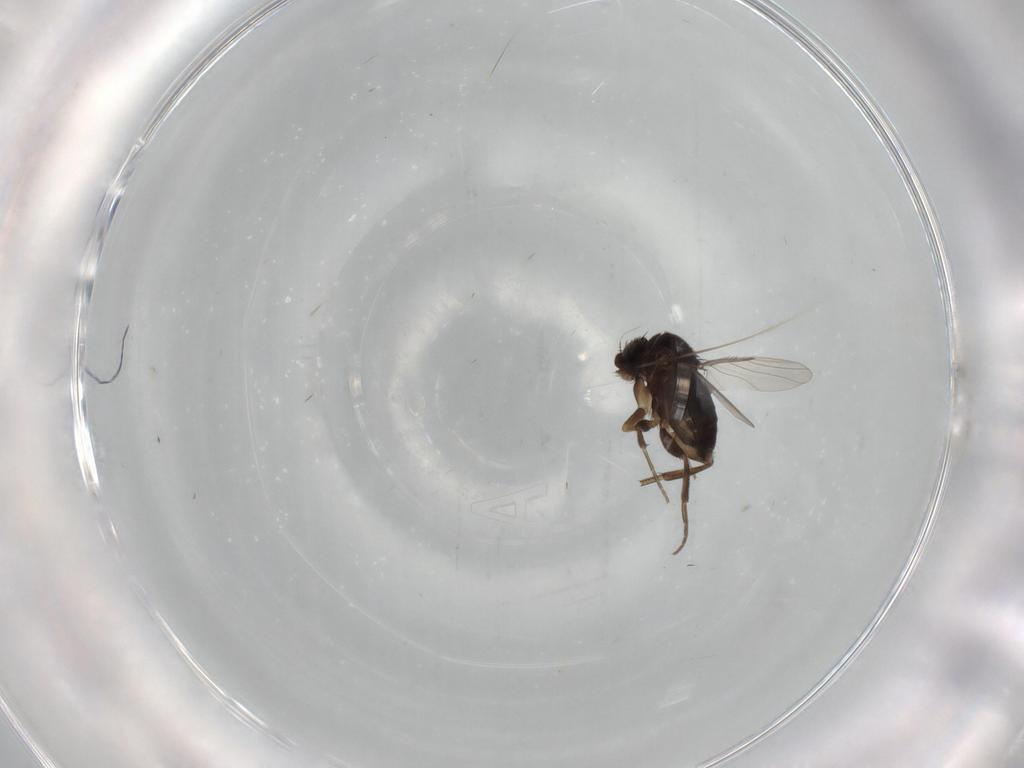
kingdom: Animalia
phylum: Arthropoda
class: Insecta
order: Diptera
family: Phoridae
